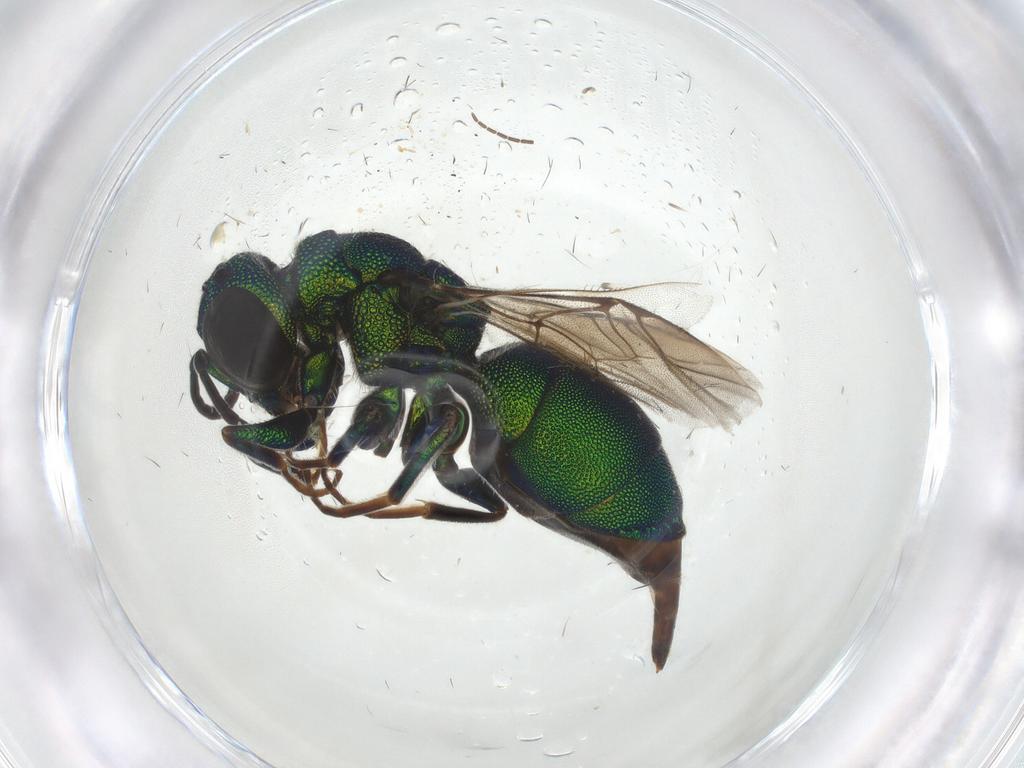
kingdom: Animalia
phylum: Arthropoda
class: Insecta
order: Hymenoptera
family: Chrysididae
